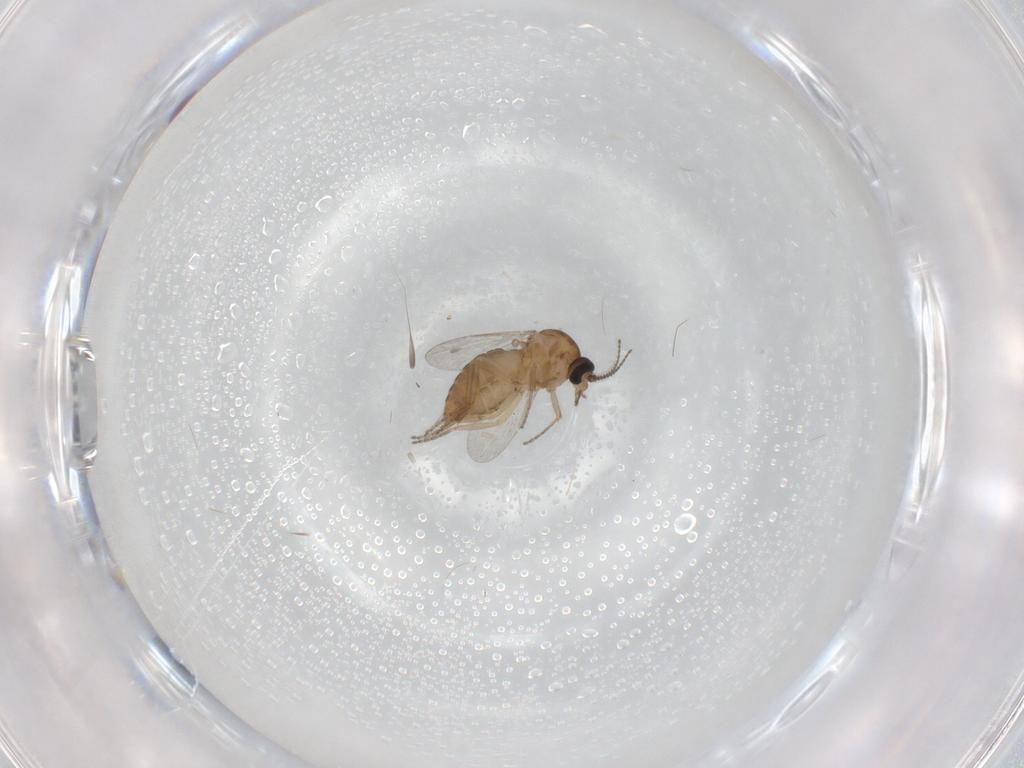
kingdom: Animalia
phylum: Arthropoda
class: Insecta
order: Diptera
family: Ceratopogonidae
